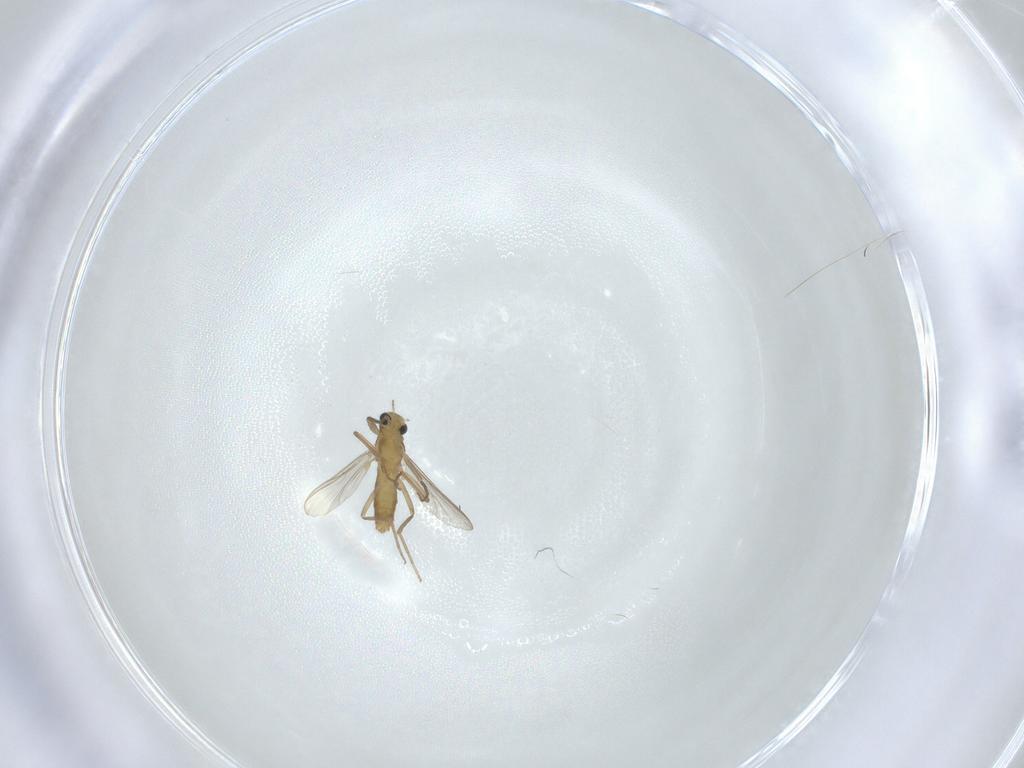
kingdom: Animalia
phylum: Arthropoda
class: Insecta
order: Diptera
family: Chironomidae
